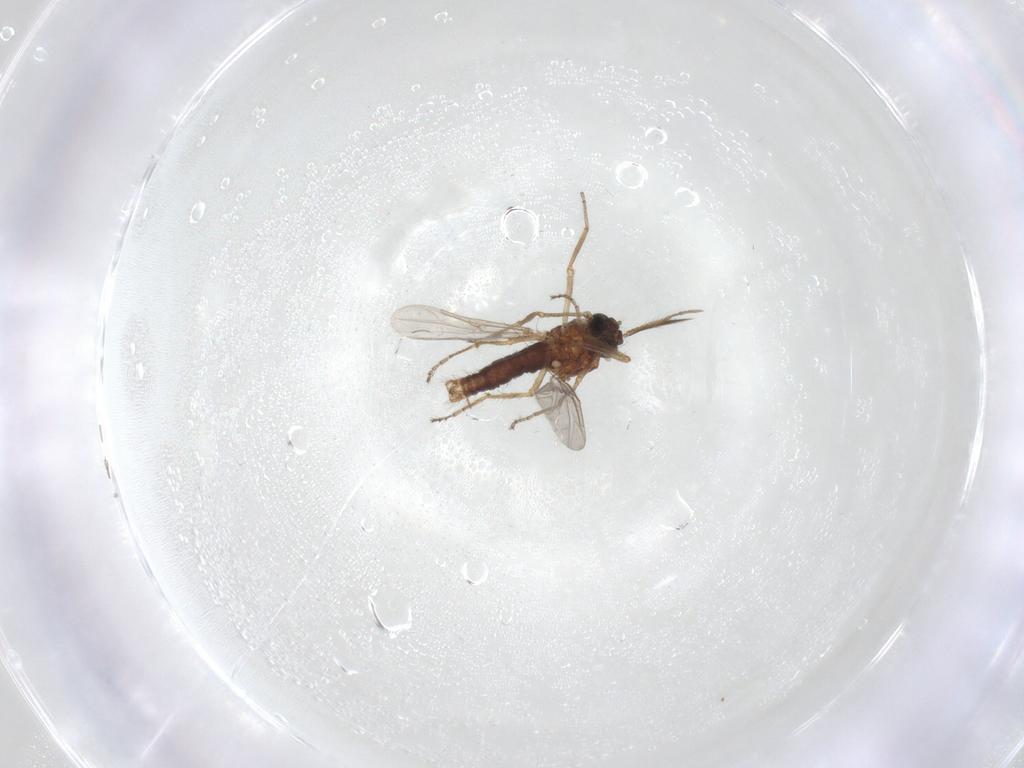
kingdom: Animalia
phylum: Arthropoda
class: Insecta
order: Diptera
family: Ceratopogonidae
